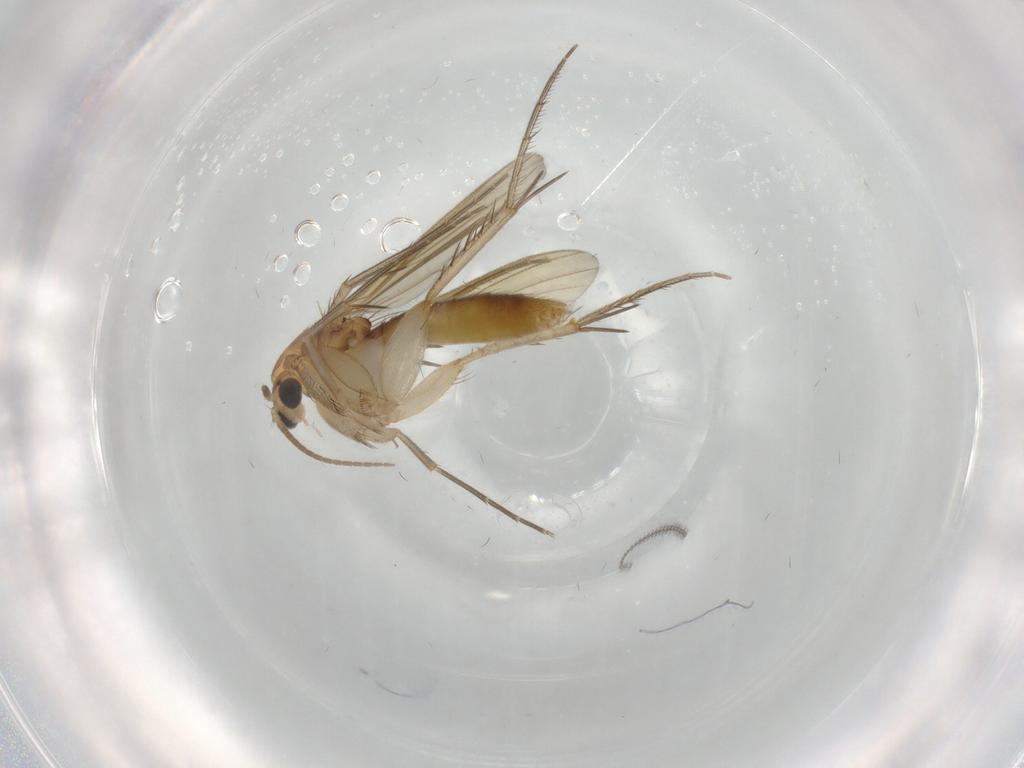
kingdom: Animalia
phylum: Arthropoda
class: Insecta
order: Diptera
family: Mycetophilidae
